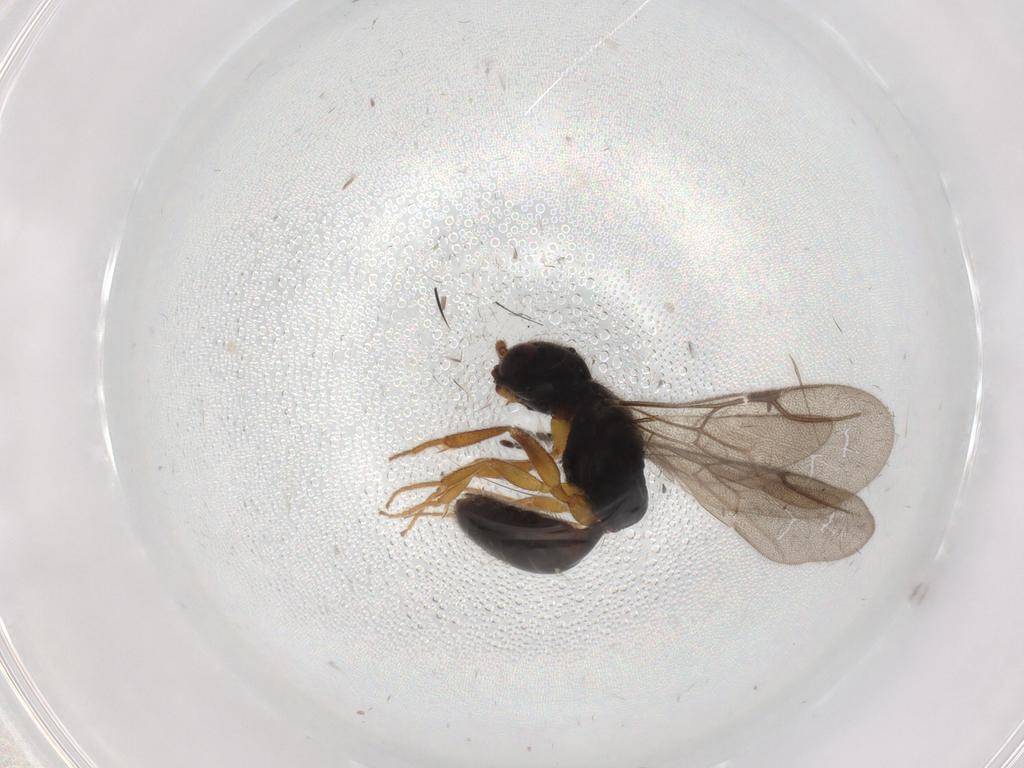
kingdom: Animalia
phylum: Arthropoda
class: Insecta
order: Hymenoptera
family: Bethylidae
